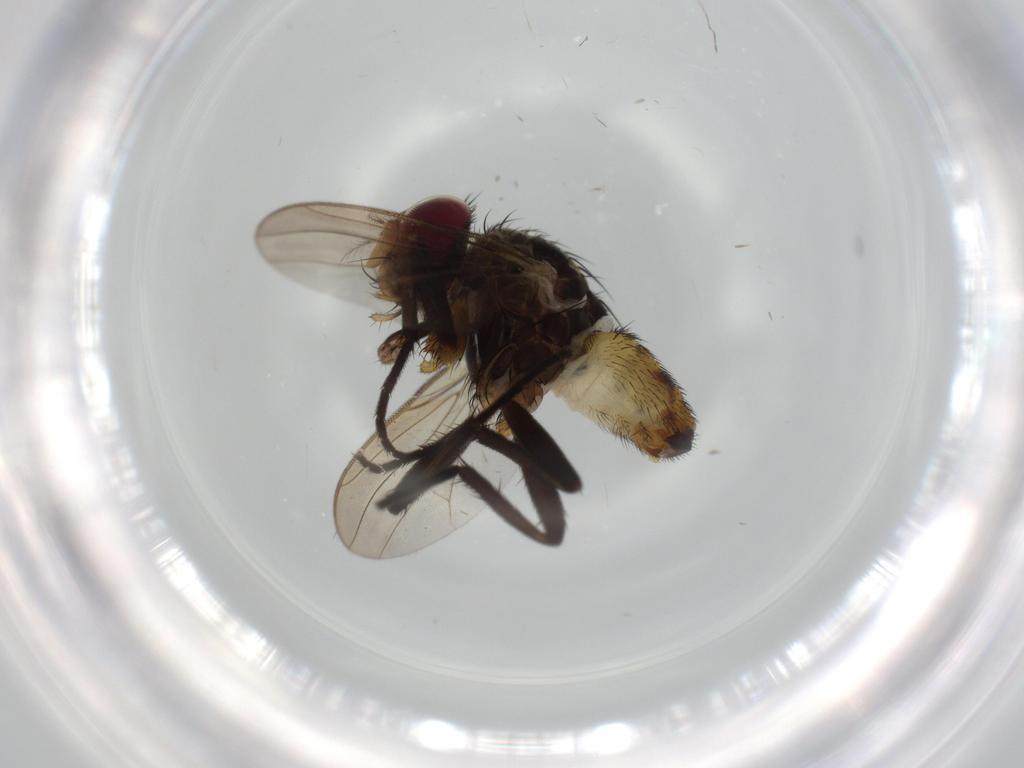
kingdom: Animalia
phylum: Arthropoda
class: Insecta
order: Diptera
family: Anthomyiidae
